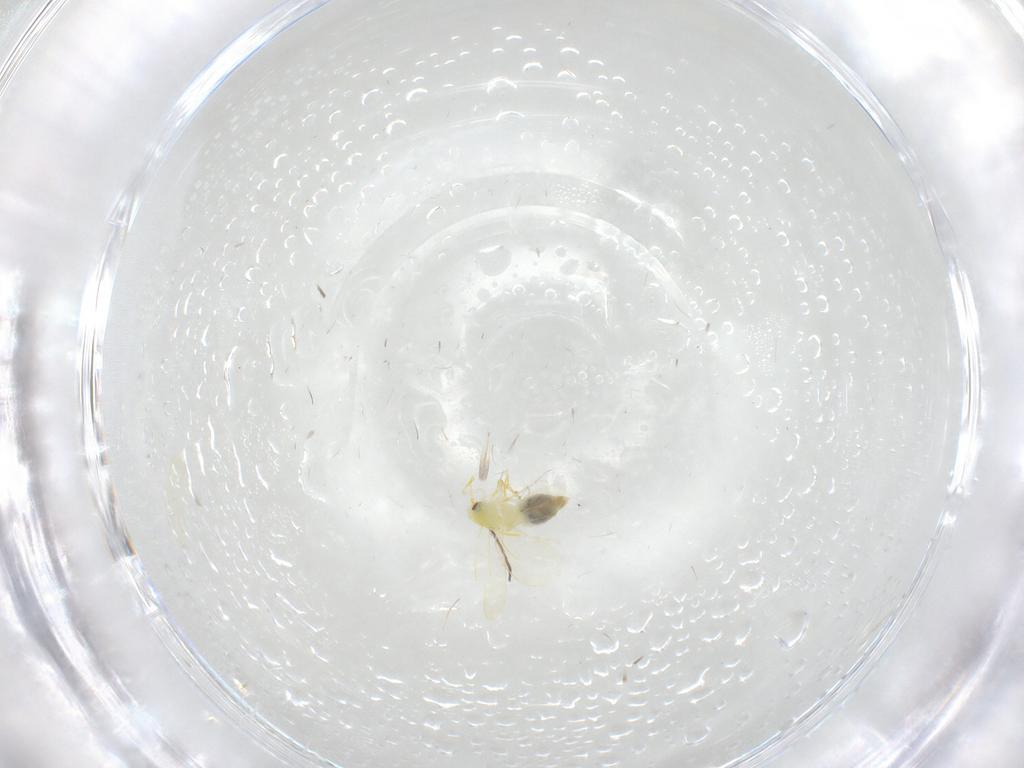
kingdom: Animalia
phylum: Arthropoda
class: Insecta
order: Hemiptera
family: Aleyrodidae
